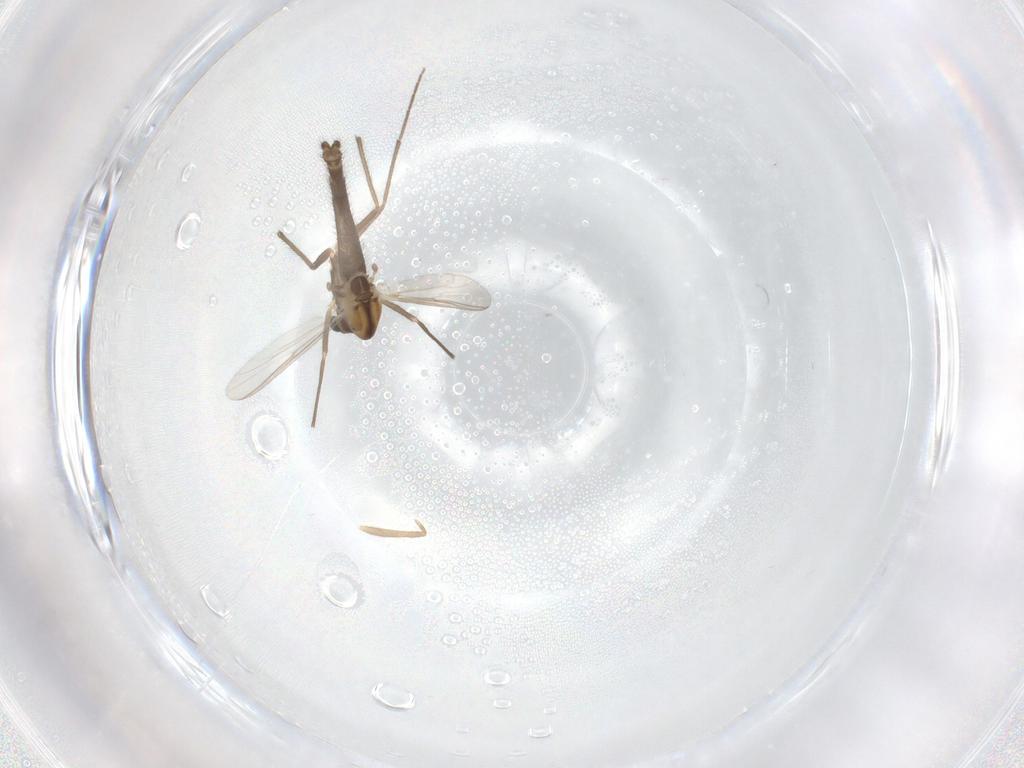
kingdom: Animalia
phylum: Arthropoda
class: Insecta
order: Diptera
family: Chironomidae
